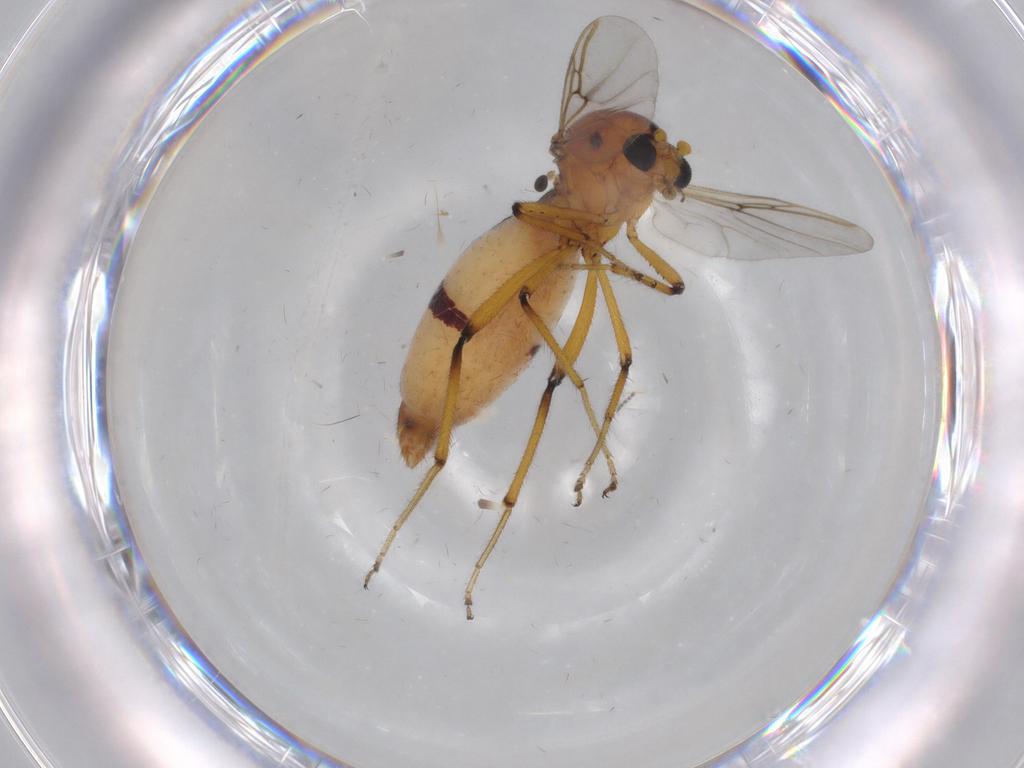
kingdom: Animalia
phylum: Arthropoda
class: Insecta
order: Diptera
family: Ceratopogonidae
